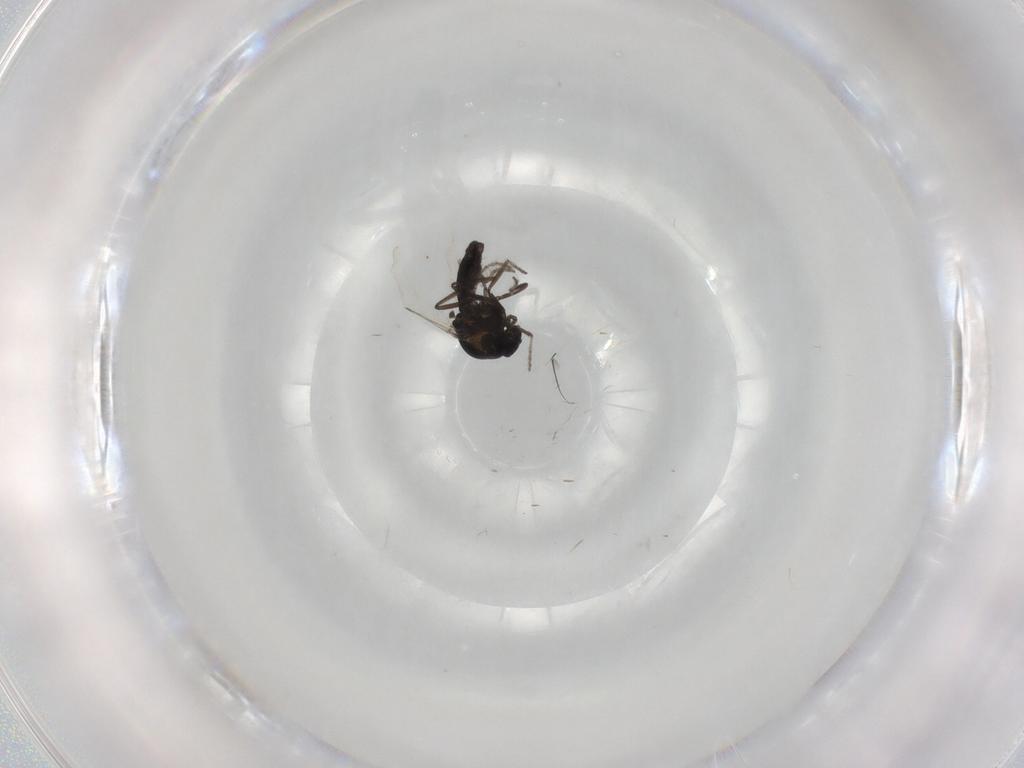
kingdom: Animalia
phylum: Arthropoda
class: Insecta
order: Diptera
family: Ceratopogonidae
